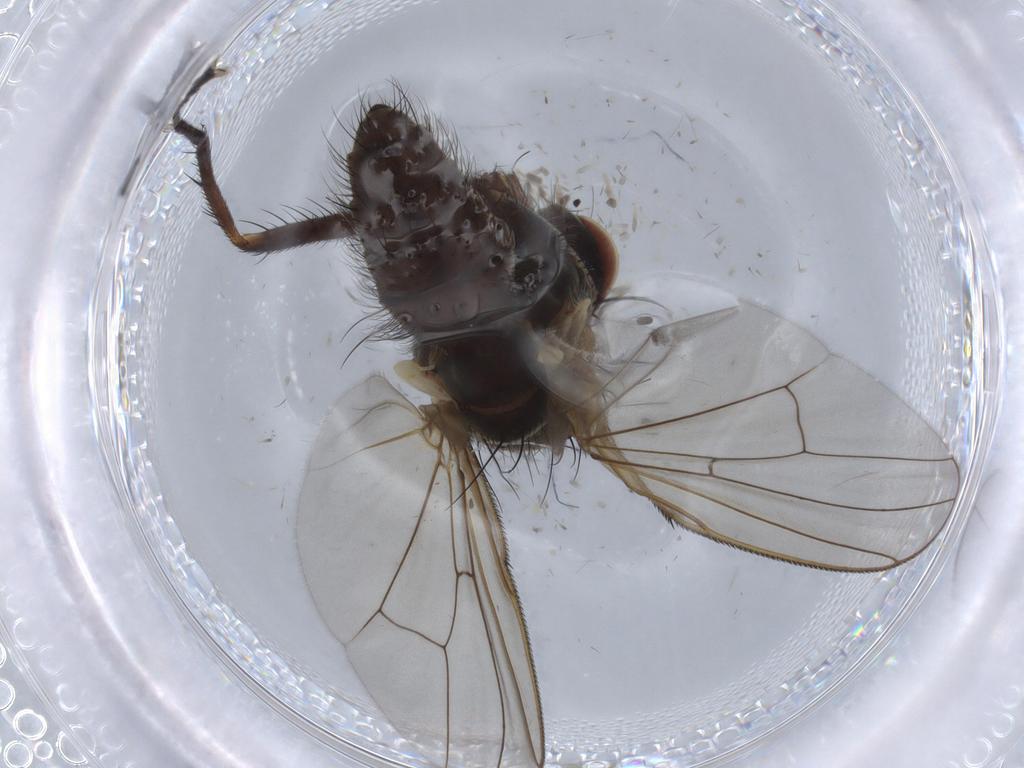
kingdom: Animalia
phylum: Arthropoda
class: Insecta
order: Diptera
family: Anthomyiidae
